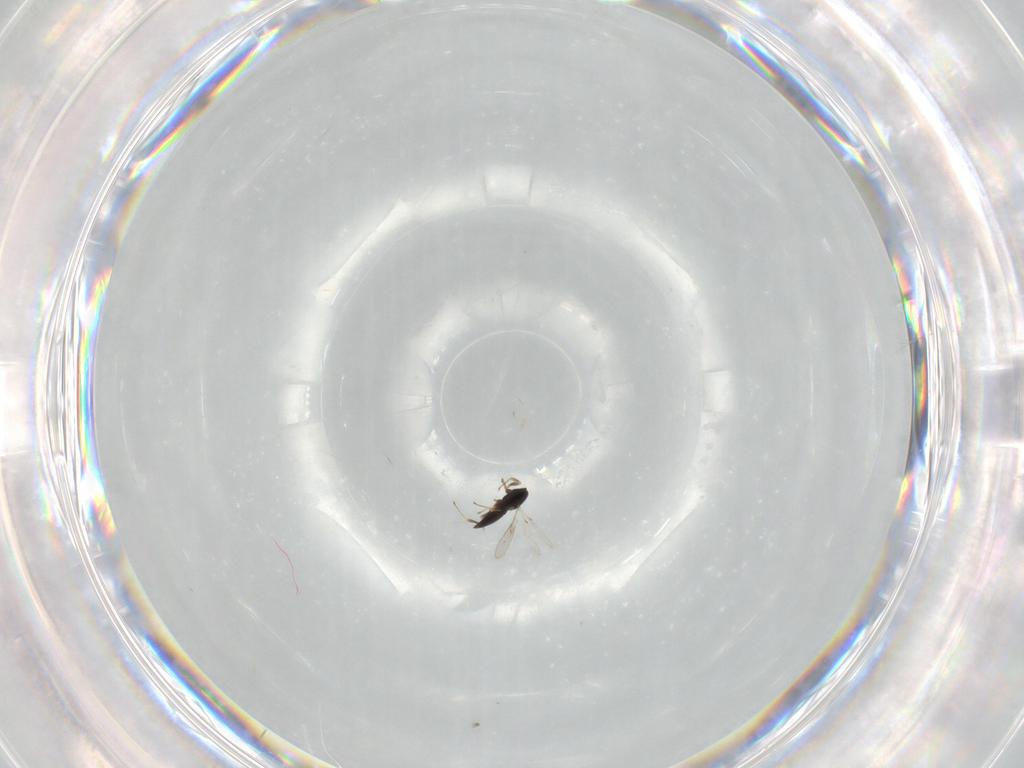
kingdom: Animalia
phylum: Arthropoda
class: Insecta
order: Hymenoptera
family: Scelionidae
